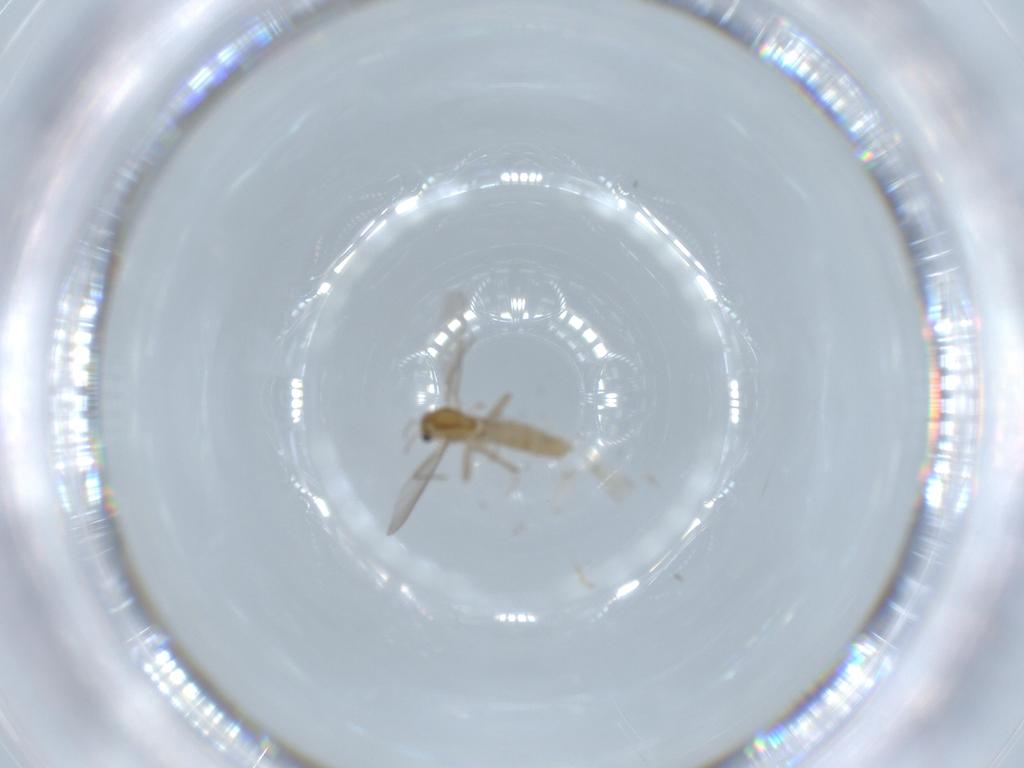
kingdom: Animalia
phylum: Arthropoda
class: Insecta
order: Diptera
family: Chironomidae
